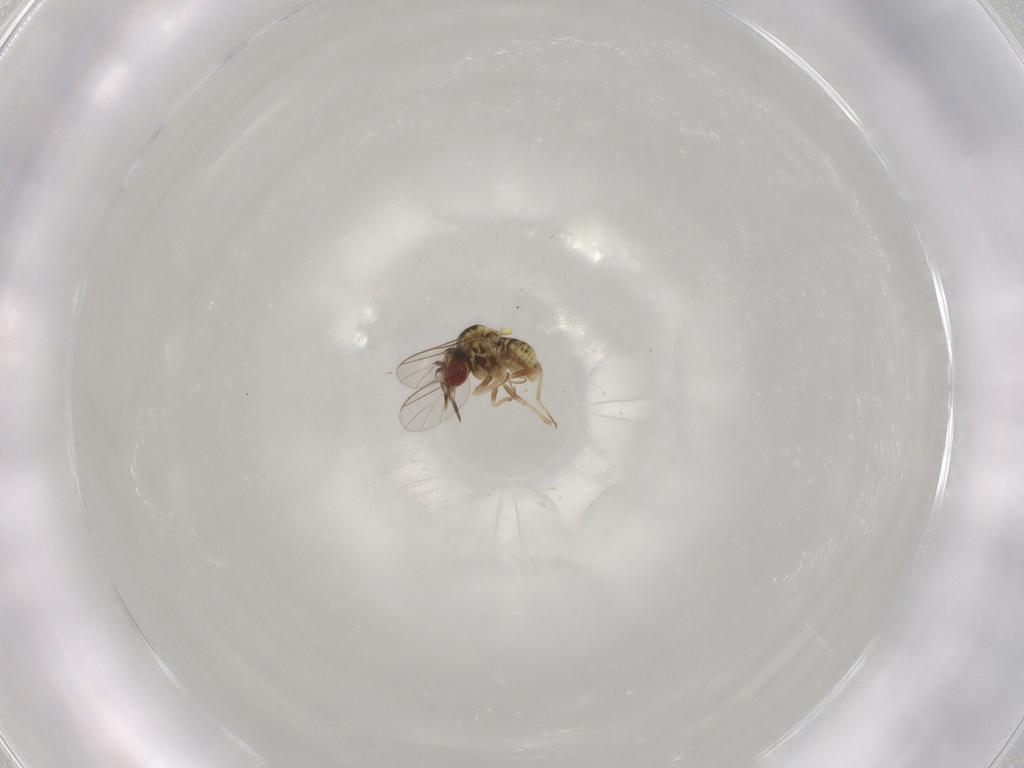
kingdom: Animalia
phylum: Arthropoda
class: Insecta
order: Diptera
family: Mythicomyiidae
